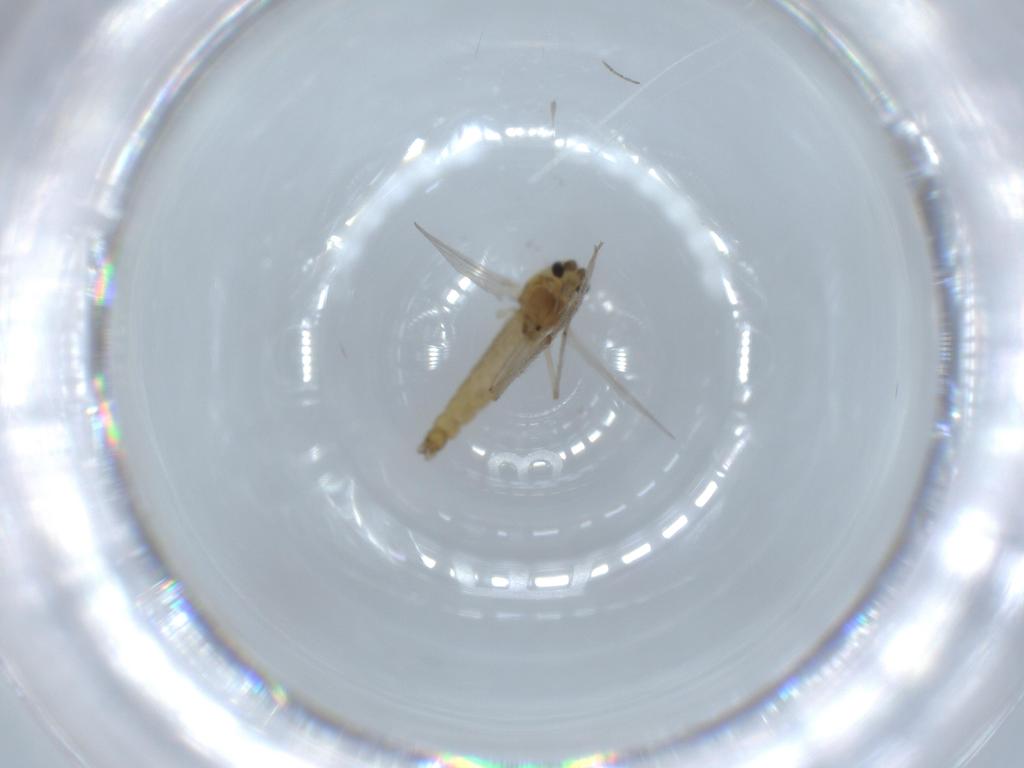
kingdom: Animalia
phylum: Arthropoda
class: Insecta
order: Diptera
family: Chironomidae
